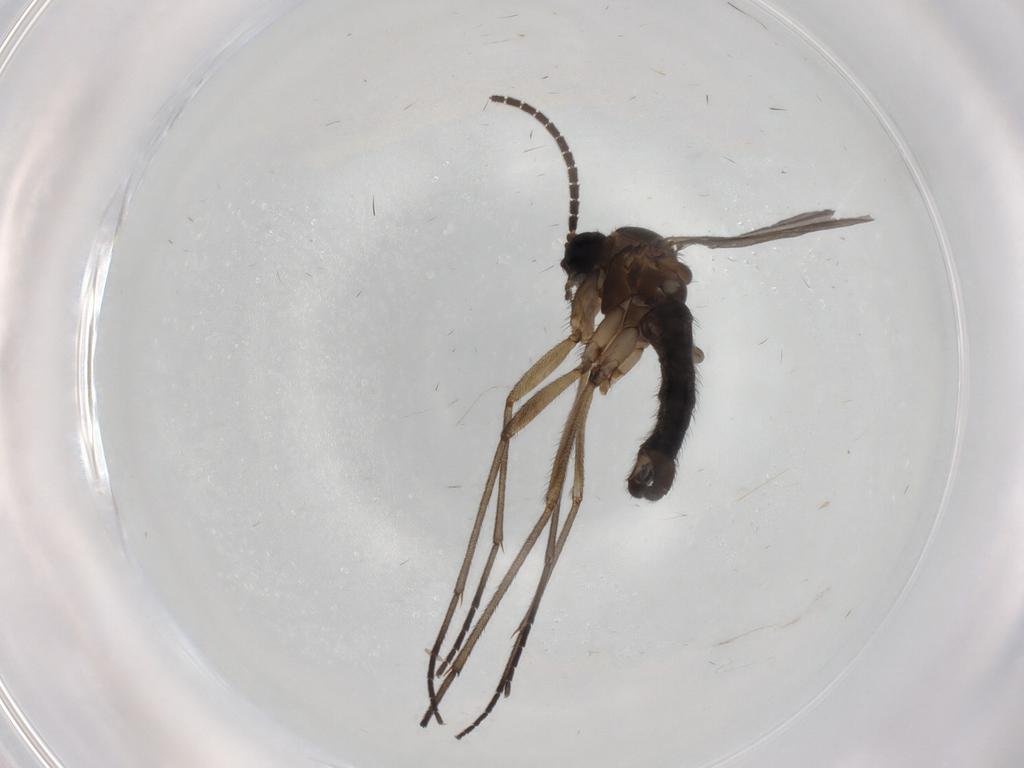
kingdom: Animalia
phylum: Arthropoda
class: Insecta
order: Diptera
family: Sciaridae
